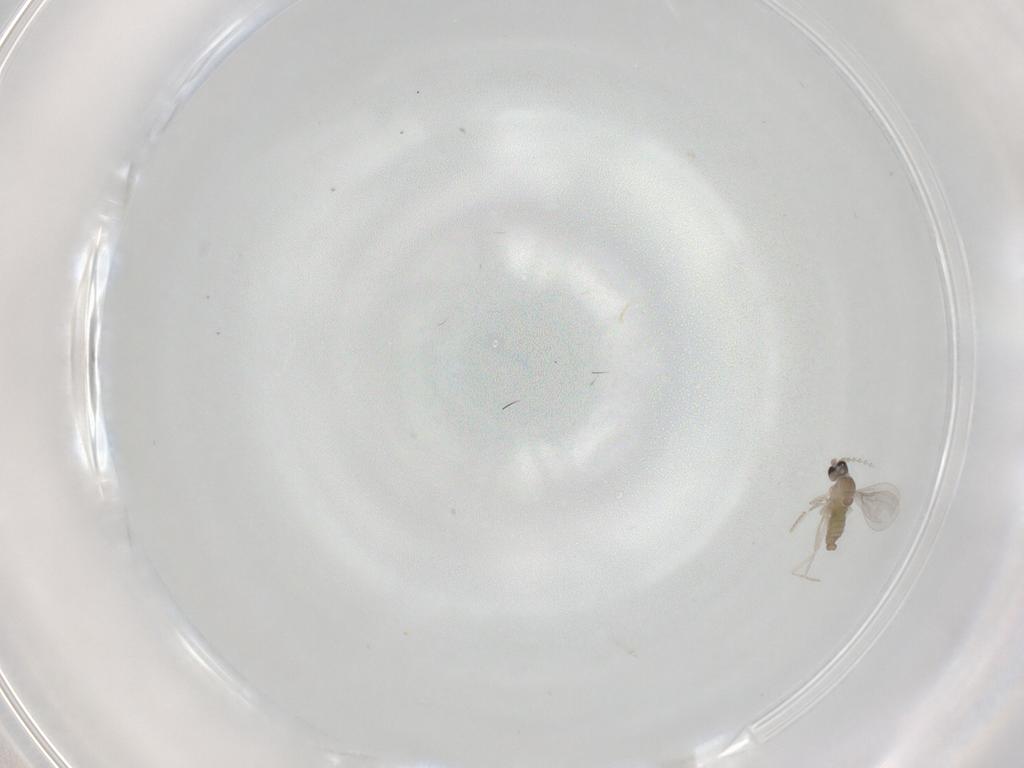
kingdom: Animalia
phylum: Arthropoda
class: Insecta
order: Diptera
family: Cecidomyiidae
